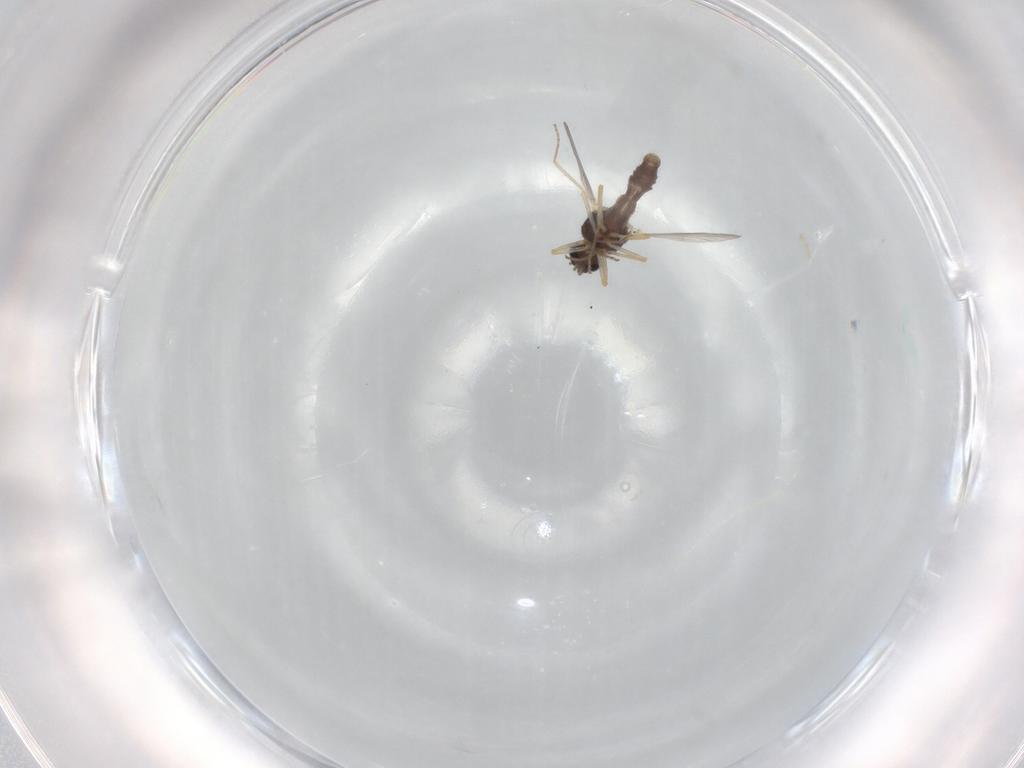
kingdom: Animalia
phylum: Arthropoda
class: Insecta
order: Diptera
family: Ceratopogonidae
